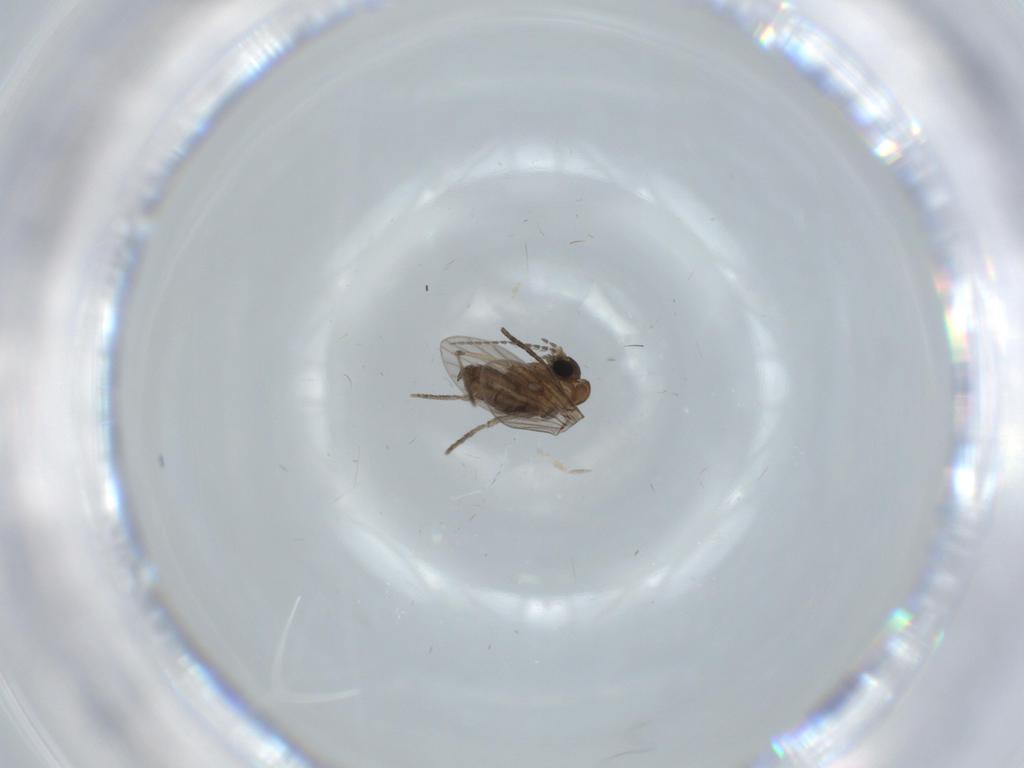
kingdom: Animalia
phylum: Arthropoda
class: Insecta
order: Diptera
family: Psychodidae
